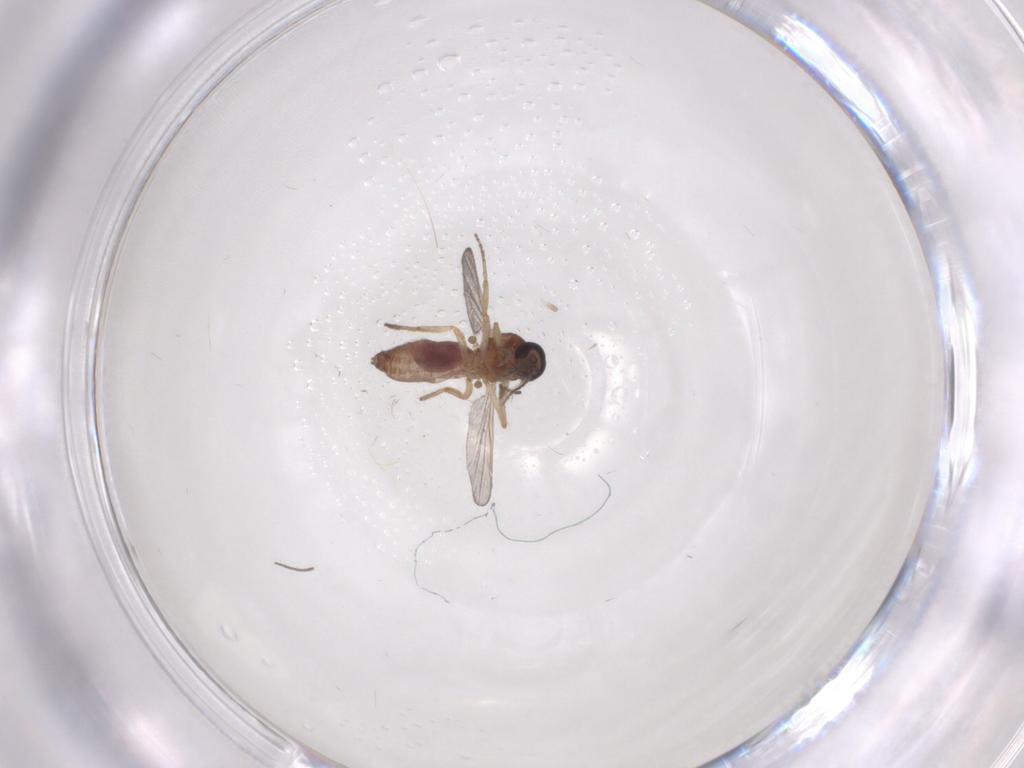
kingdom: Animalia
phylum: Arthropoda
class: Insecta
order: Diptera
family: Ceratopogonidae
